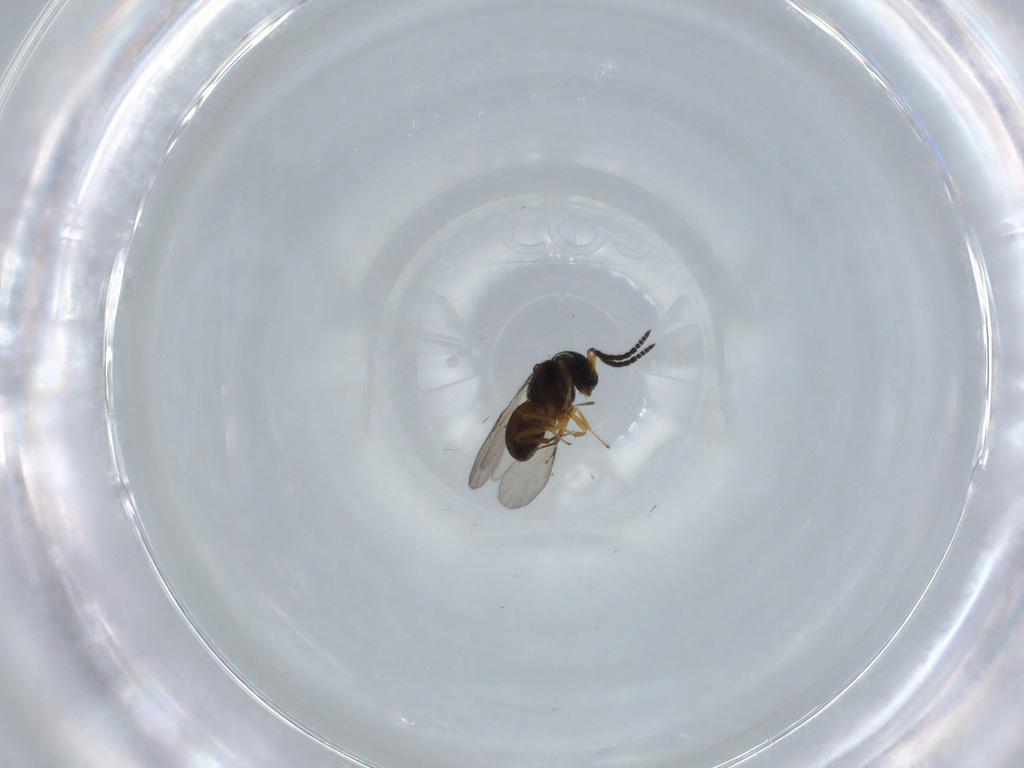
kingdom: Animalia
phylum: Arthropoda
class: Insecta
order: Hymenoptera
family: Scelionidae
